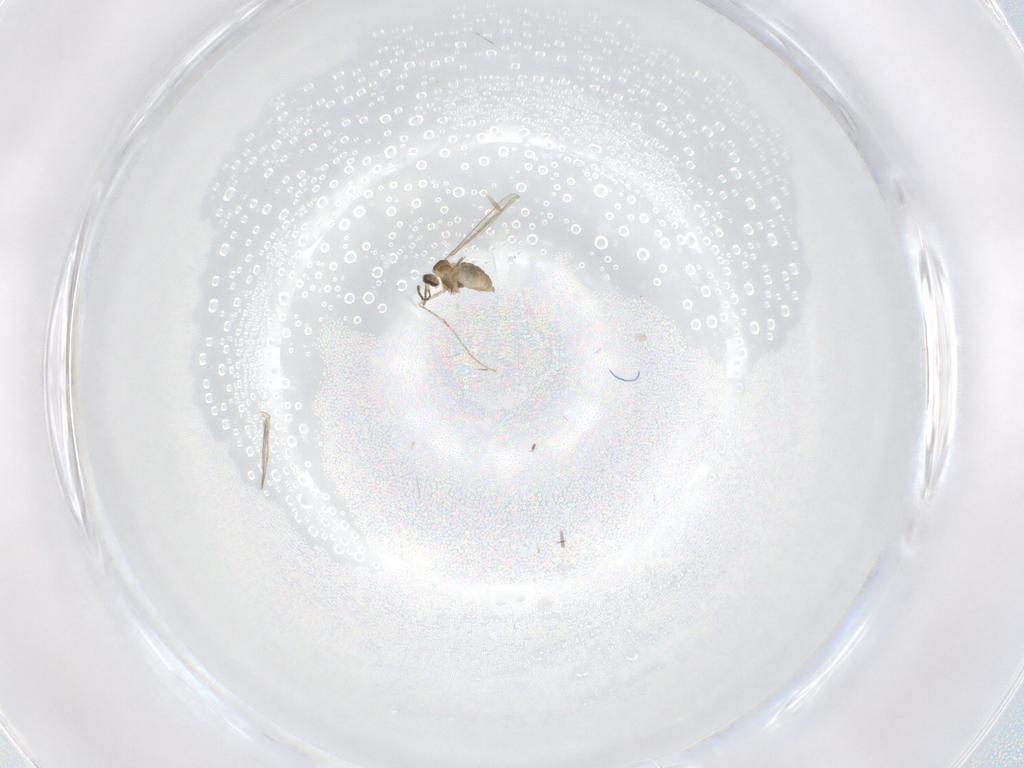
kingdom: Animalia
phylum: Arthropoda
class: Insecta
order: Diptera
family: Cecidomyiidae
